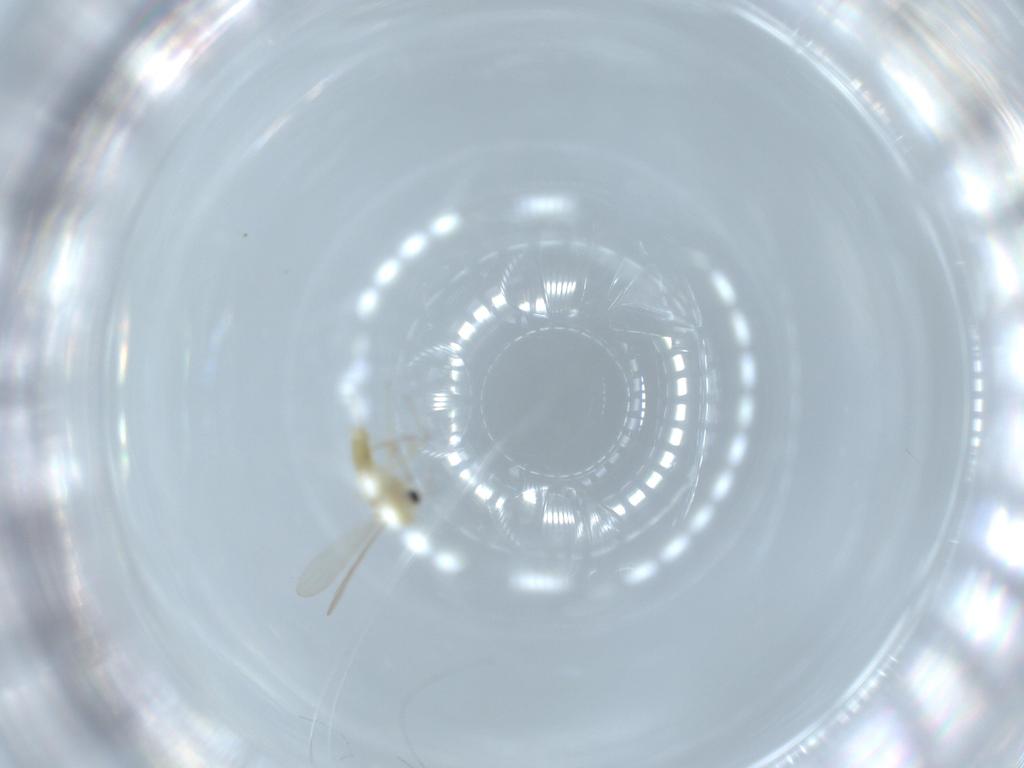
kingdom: Animalia
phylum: Arthropoda
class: Insecta
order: Diptera
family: Chironomidae
